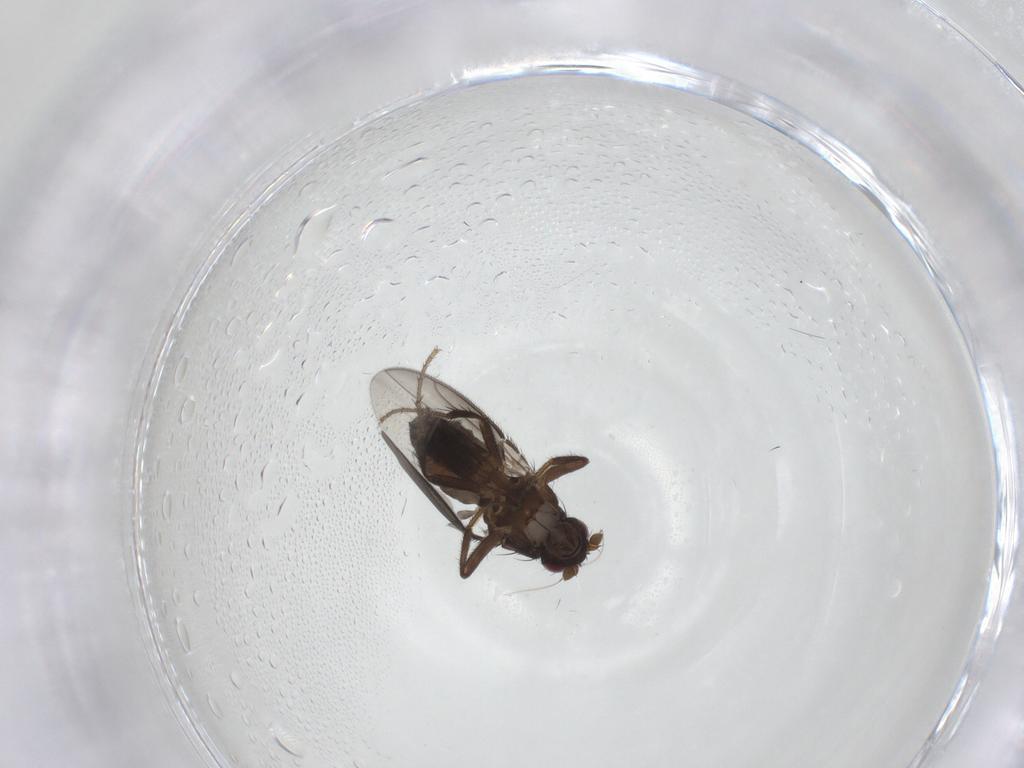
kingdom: Animalia
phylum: Arthropoda
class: Insecta
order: Diptera
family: Sphaeroceridae
